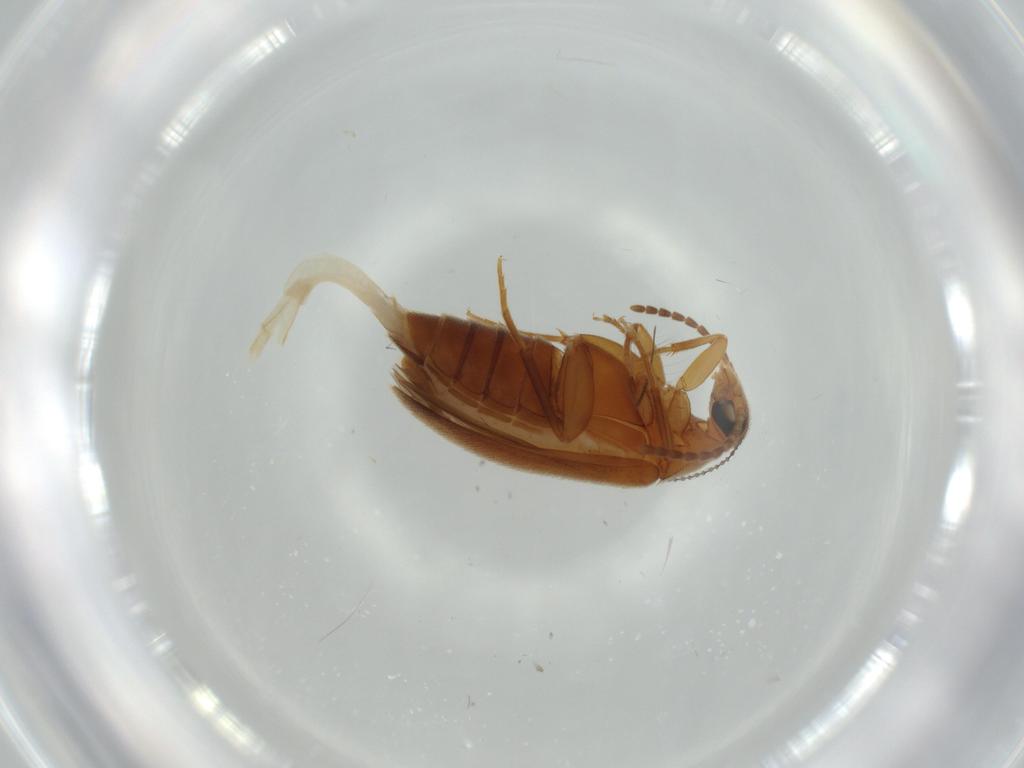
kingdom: Animalia
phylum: Arthropoda
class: Insecta
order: Coleoptera
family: Scraptiidae
